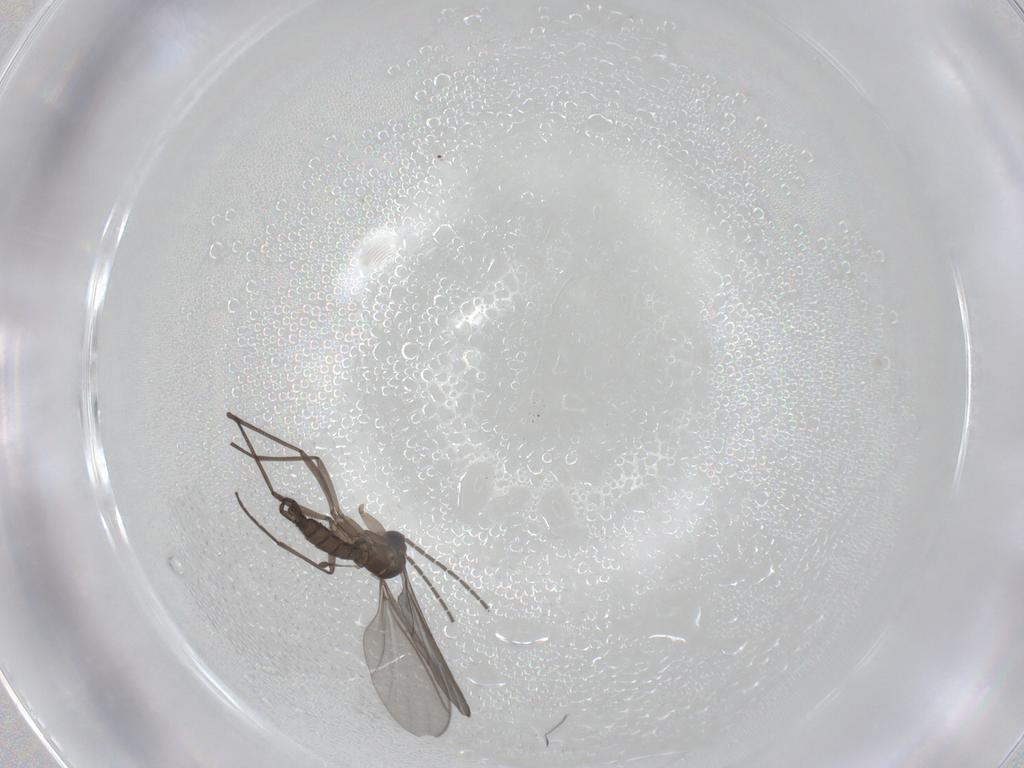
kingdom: Animalia
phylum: Arthropoda
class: Insecta
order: Diptera
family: Sciaridae
